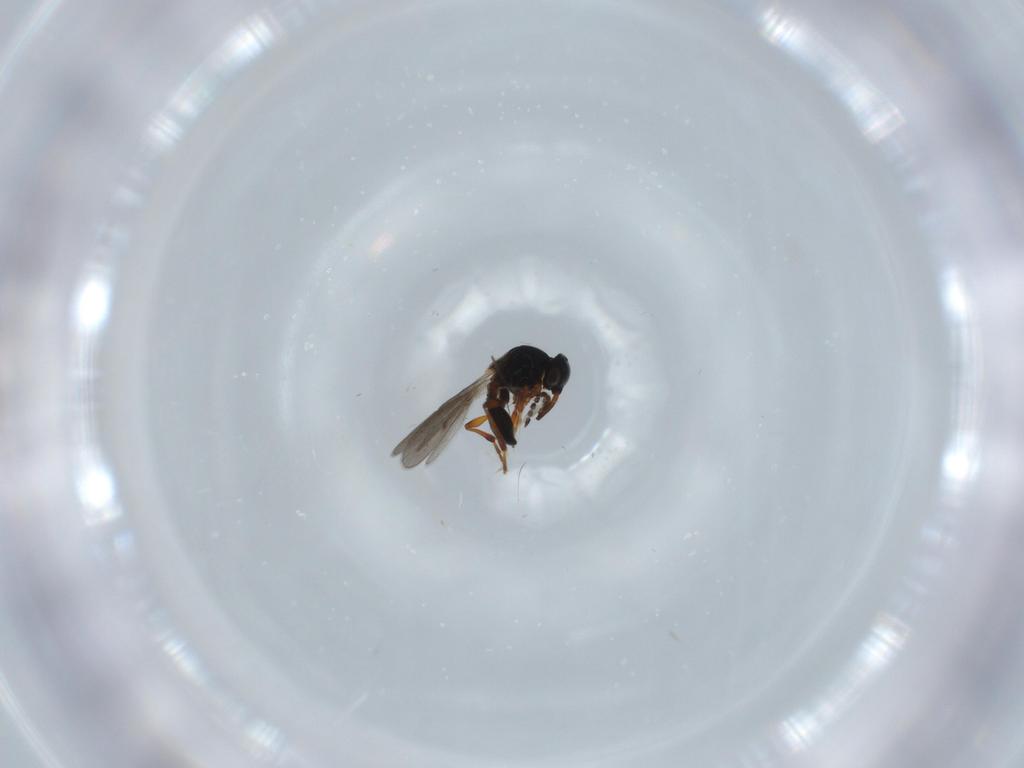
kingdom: Animalia
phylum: Arthropoda
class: Insecta
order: Hymenoptera
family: Platygastridae
